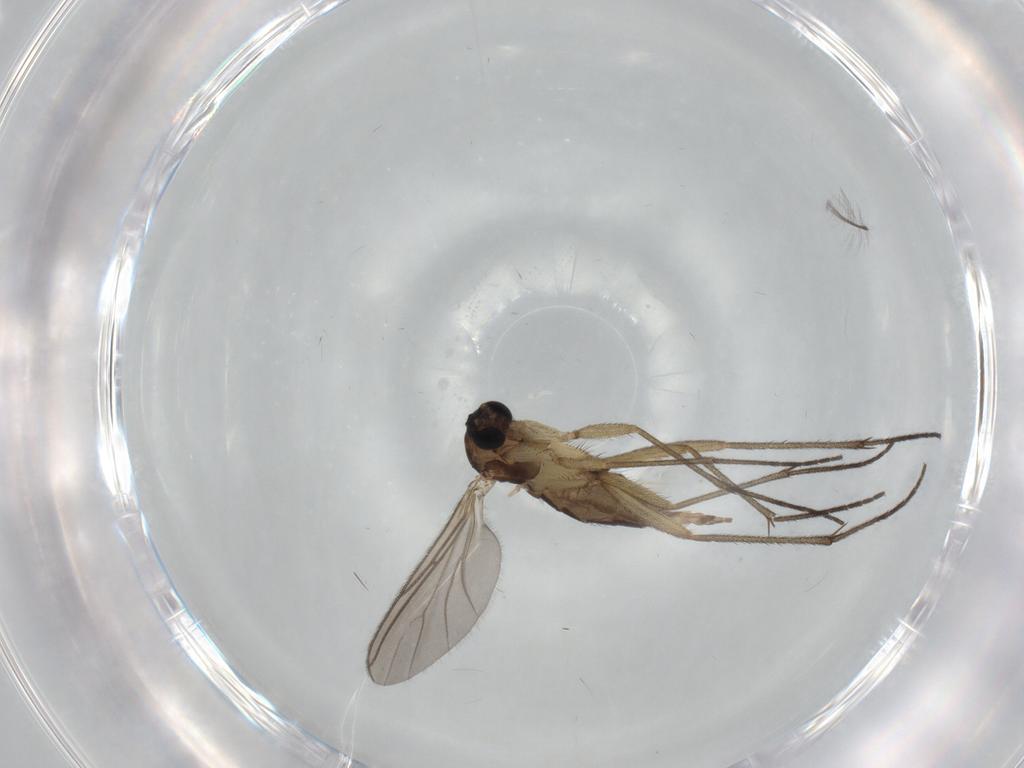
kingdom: Animalia
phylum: Arthropoda
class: Insecta
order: Diptera
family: Sciaridae
